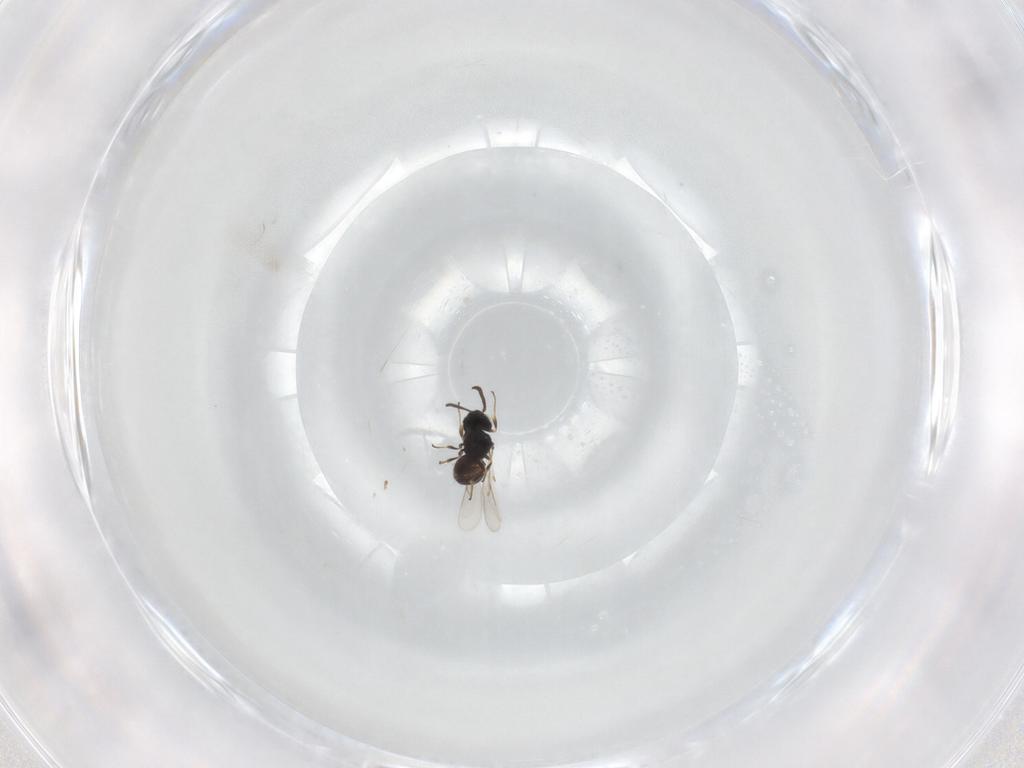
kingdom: Animalia
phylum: Arthropoda
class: Insecta
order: Hymenoptera
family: Scelionidae
